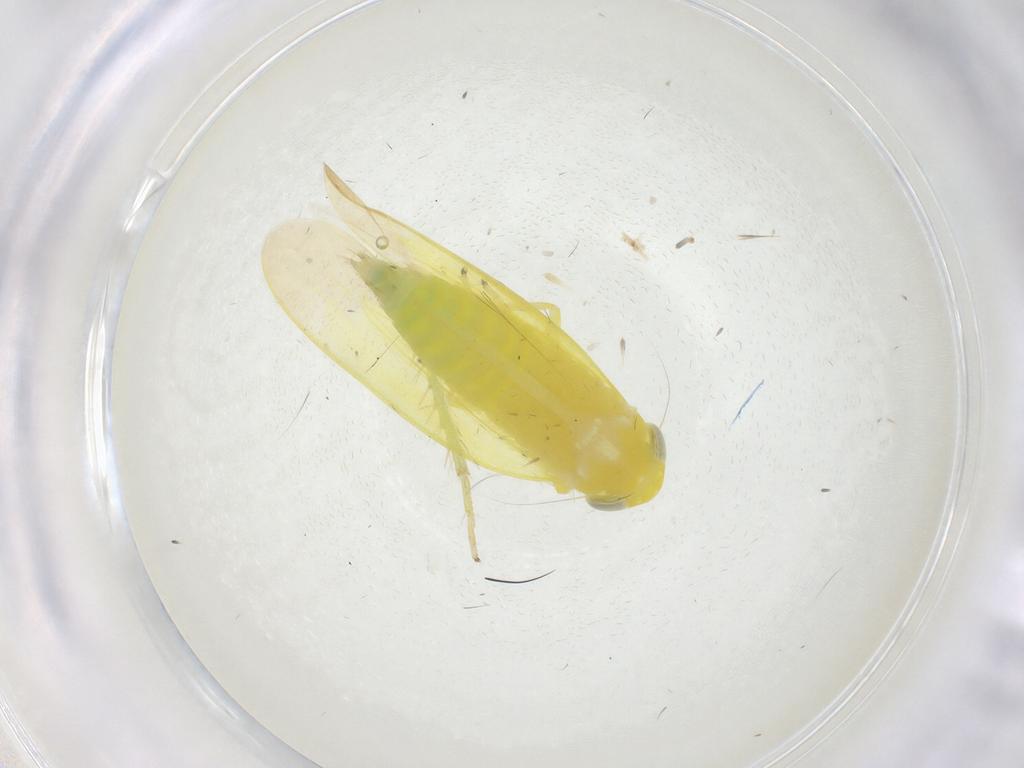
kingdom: Animalia
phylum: Arthropoda
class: Insecta
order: Hemiptera
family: Cicadellidae
